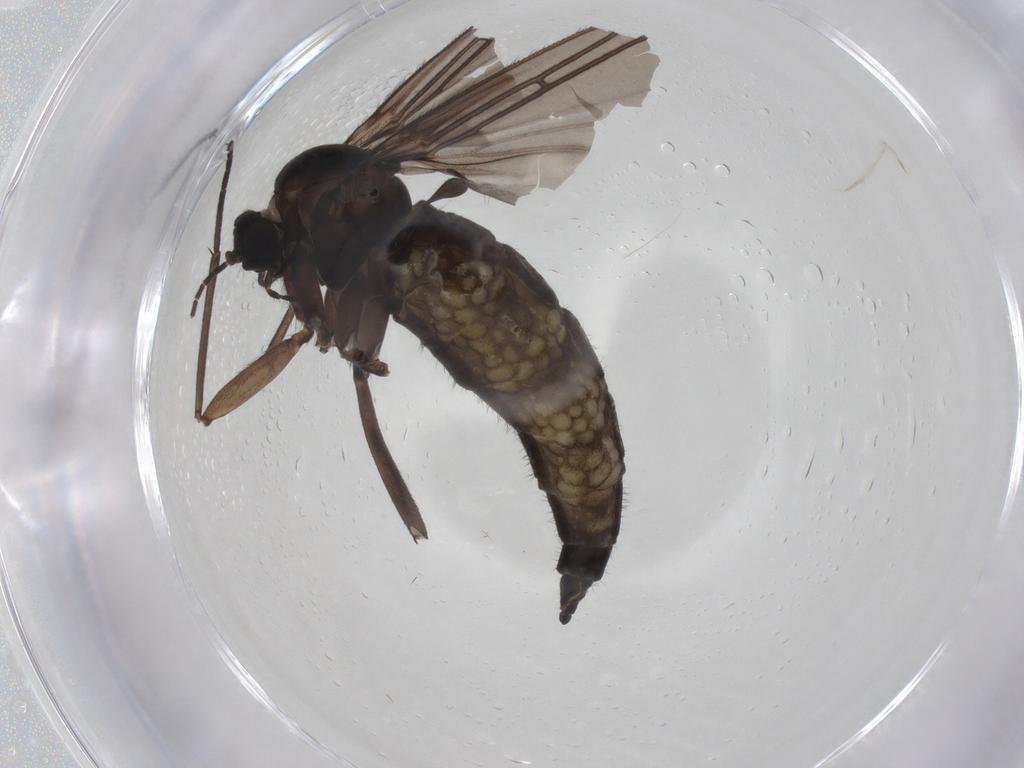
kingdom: Animalia
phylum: Arthropoda
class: Insecta
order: Diptera
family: Sciaridae
